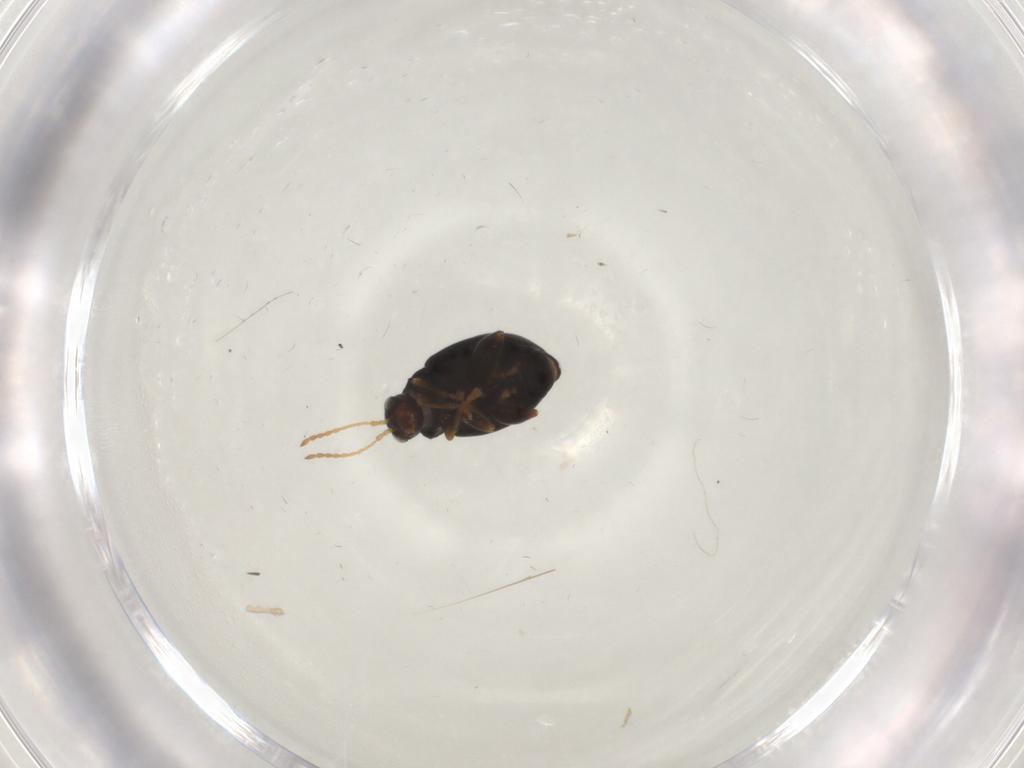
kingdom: Animalia
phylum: Arthropoda
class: Insecta
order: Coleoptera
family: Chrysomelidae
